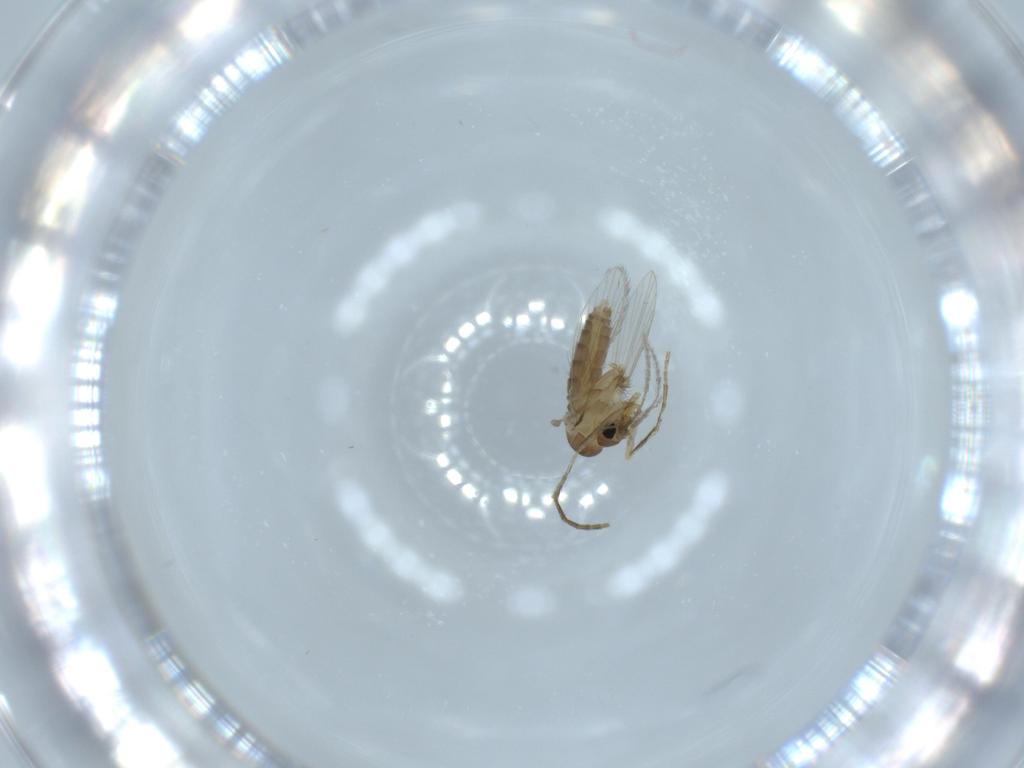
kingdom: Animalia
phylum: Arthropoda
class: Insecta
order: Diptera
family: Psychodidae
